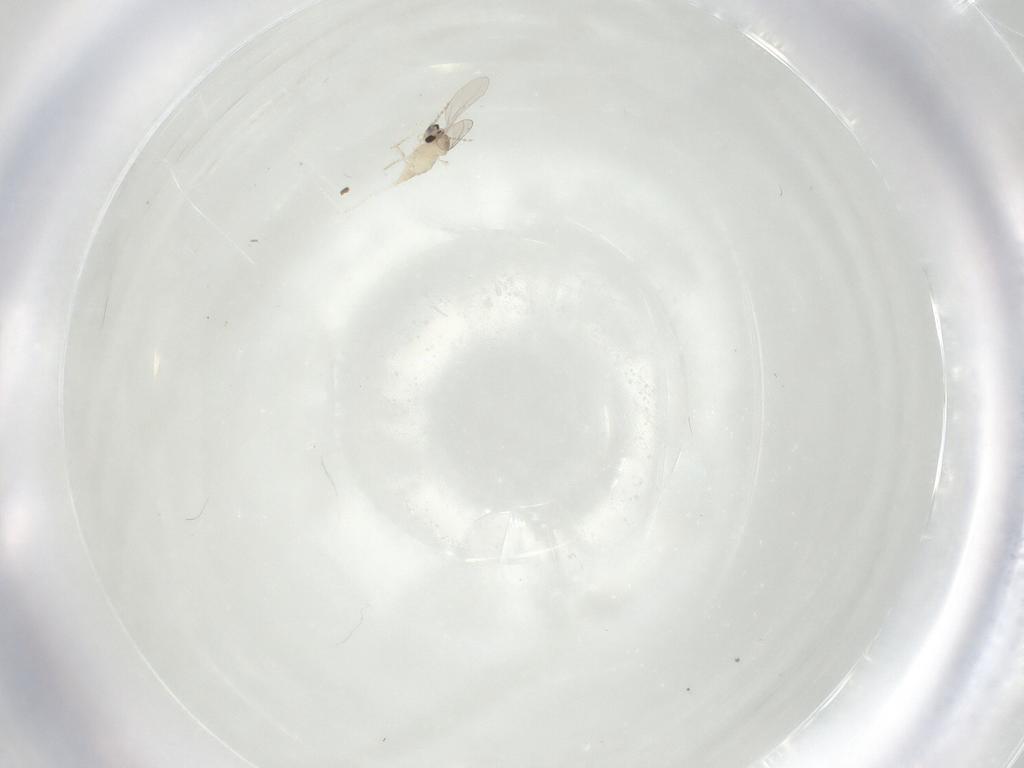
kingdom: Animalia
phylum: Arthropoda
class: Insecta
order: Diptera
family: Cecidomyiidae
